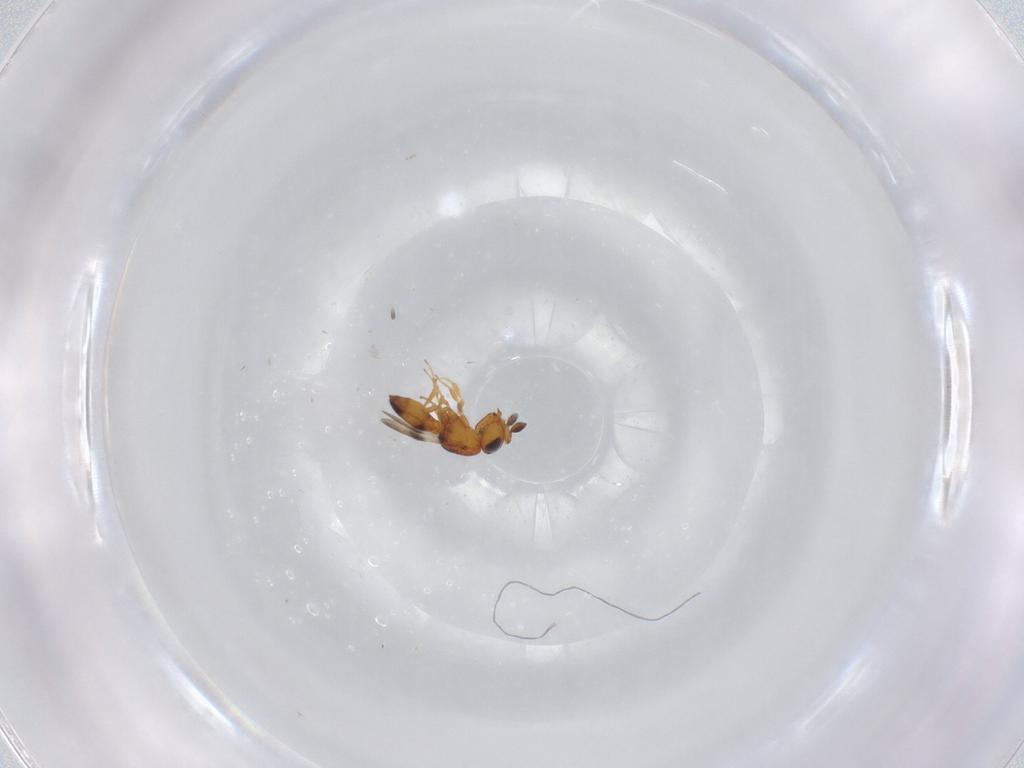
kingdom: Animalia
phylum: Arthropoda
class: Insecta
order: Hymenoptera
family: Scelionidae
